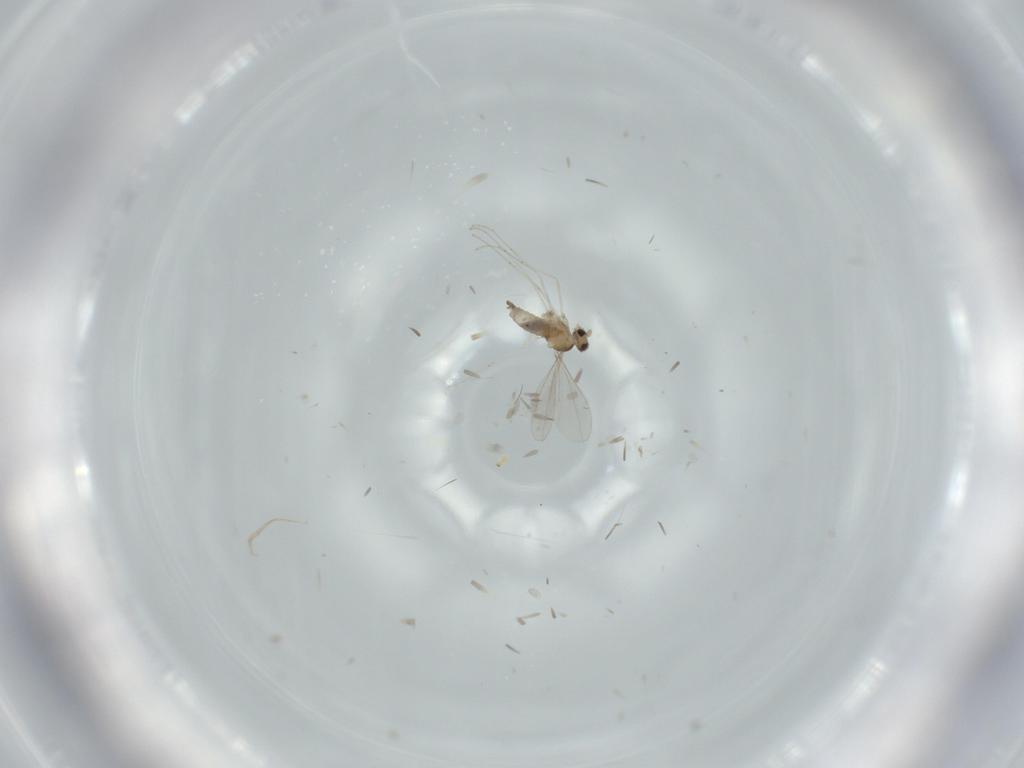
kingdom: Animalia
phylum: Arthropoda
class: Insecta
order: Diptera
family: Cecidomyiidae
